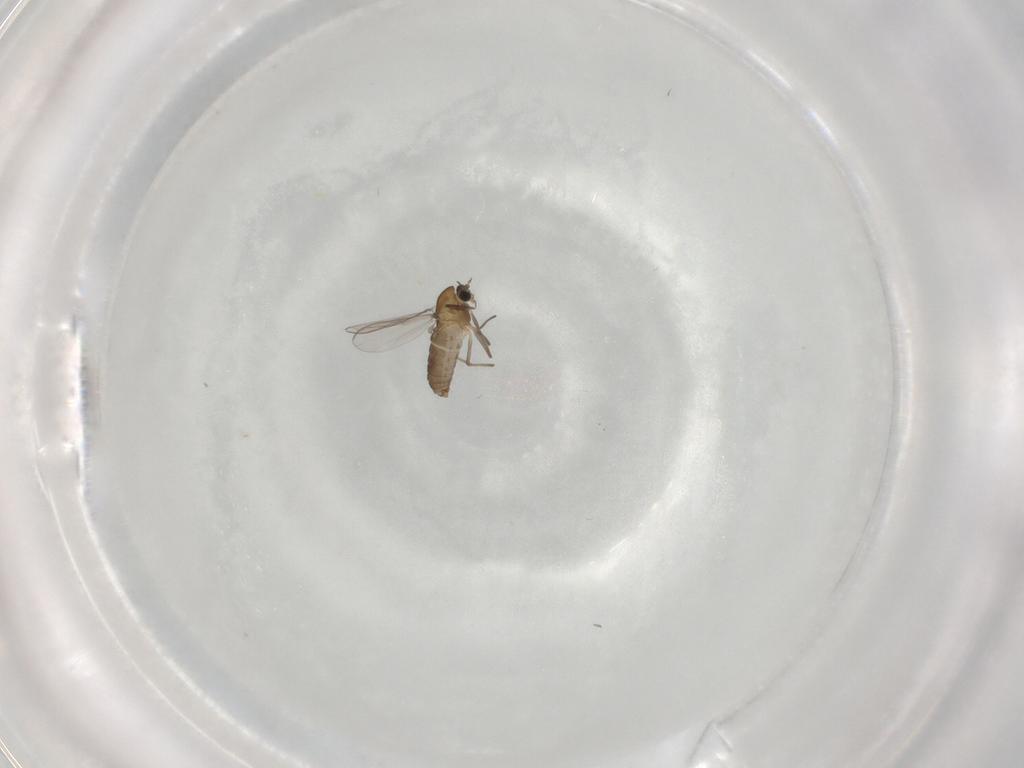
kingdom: Animalia
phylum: Arthropoda
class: Insecta
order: Diptera
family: Chironomidae
